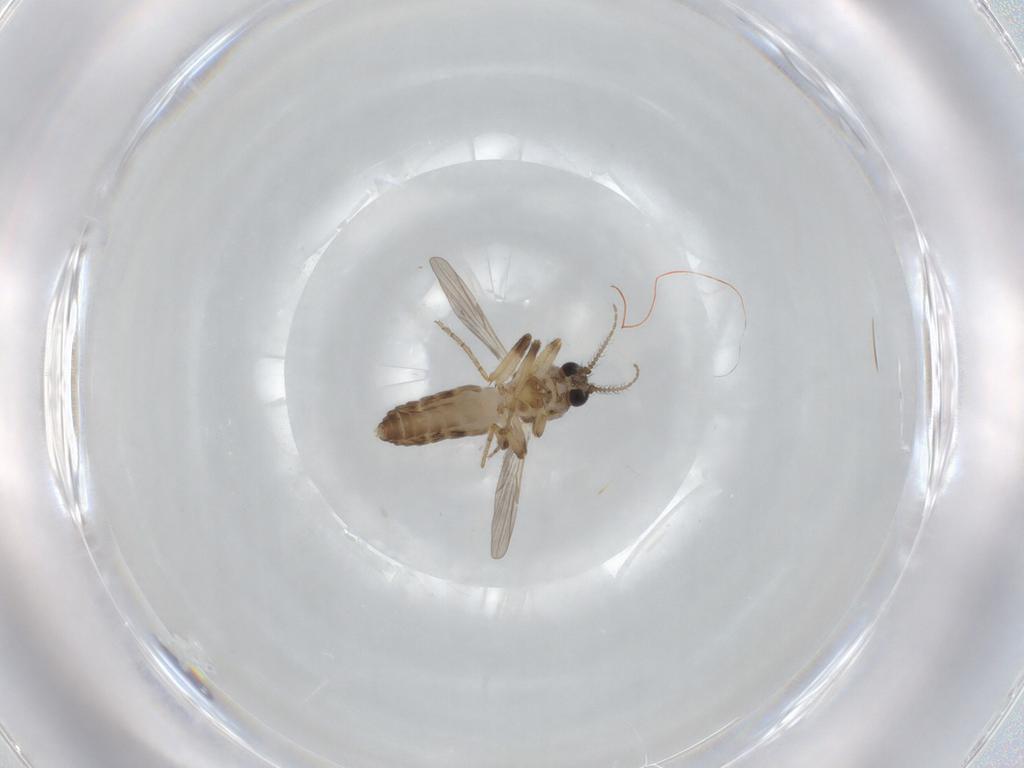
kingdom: Animalia
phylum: Arthropoda
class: Insecta
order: Diptera
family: Ceratopogonidae
